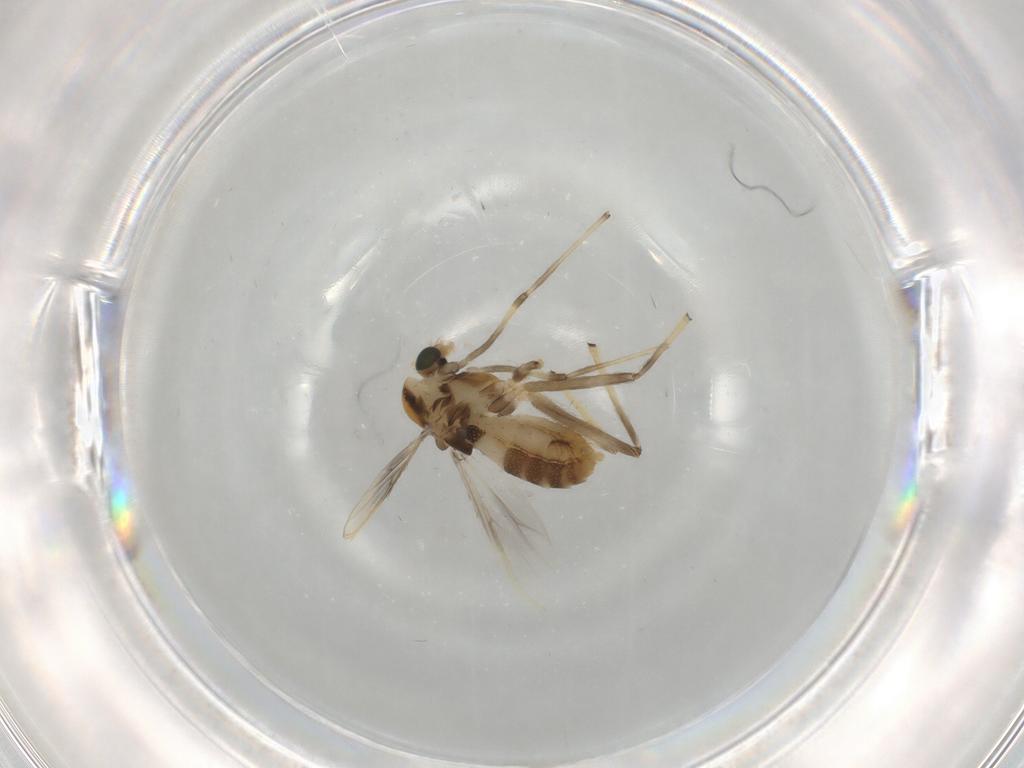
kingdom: Animalia
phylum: Arthropoda
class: Insecta
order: Diptera
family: Chironomidae
